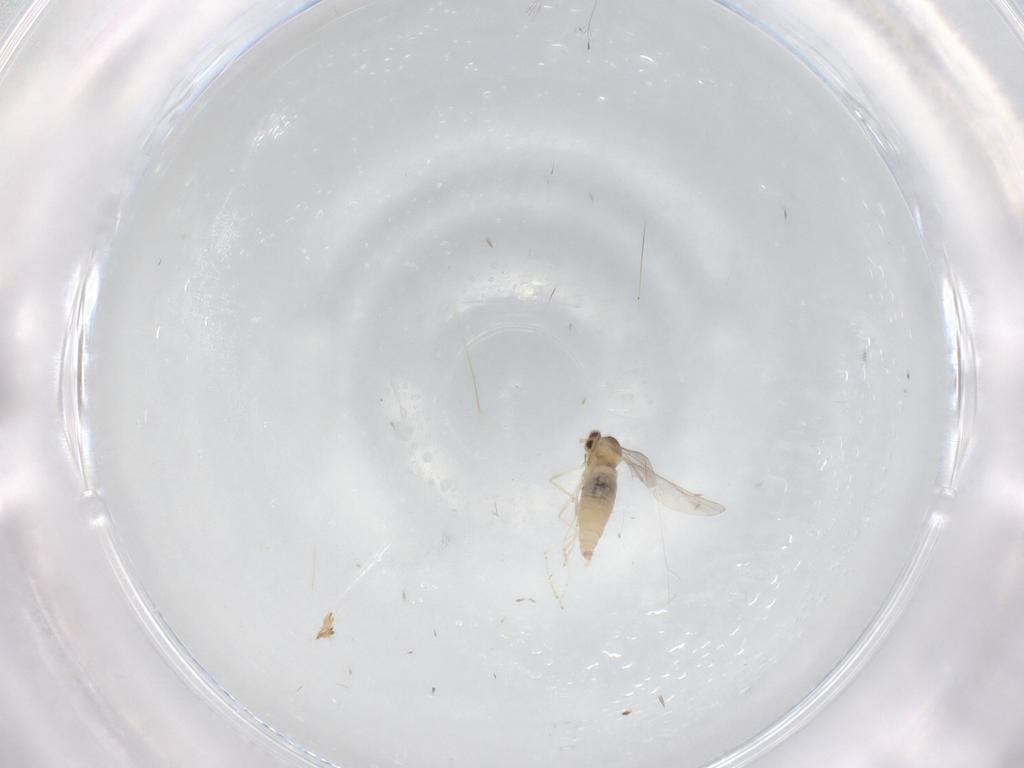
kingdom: Animalia
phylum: Arthropoda
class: Insecta
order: Diptera
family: Cecidomyiidae
